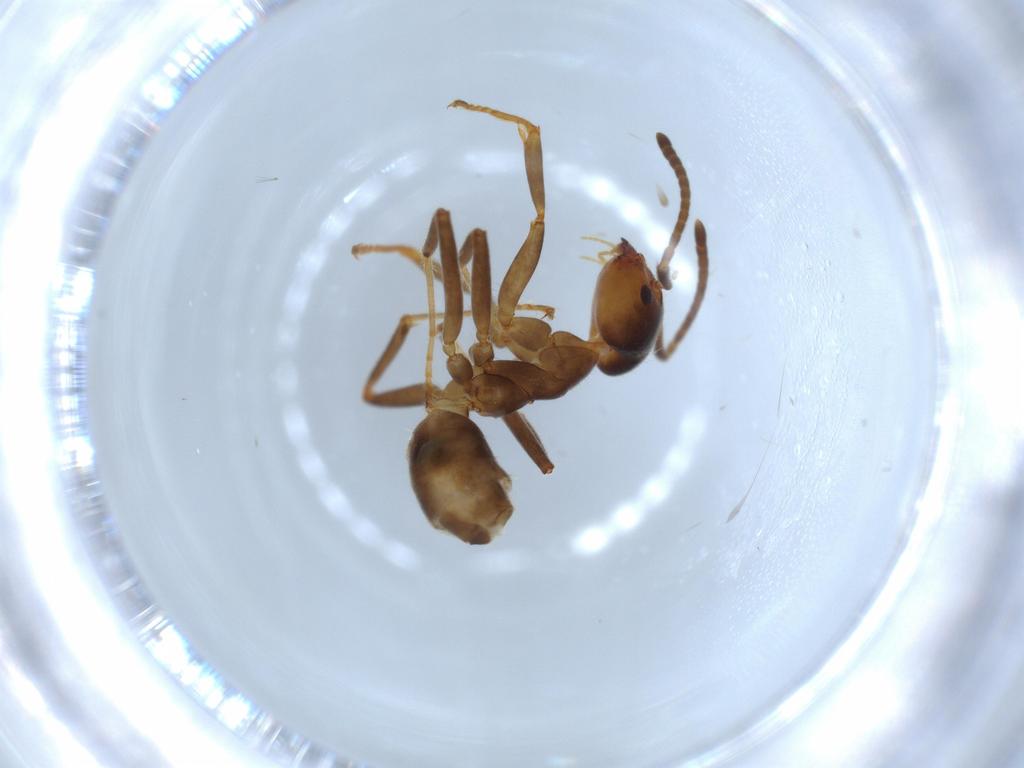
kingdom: Animalia
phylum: Arthropoda
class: Insecta
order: Hymenoptera
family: Formicidae
